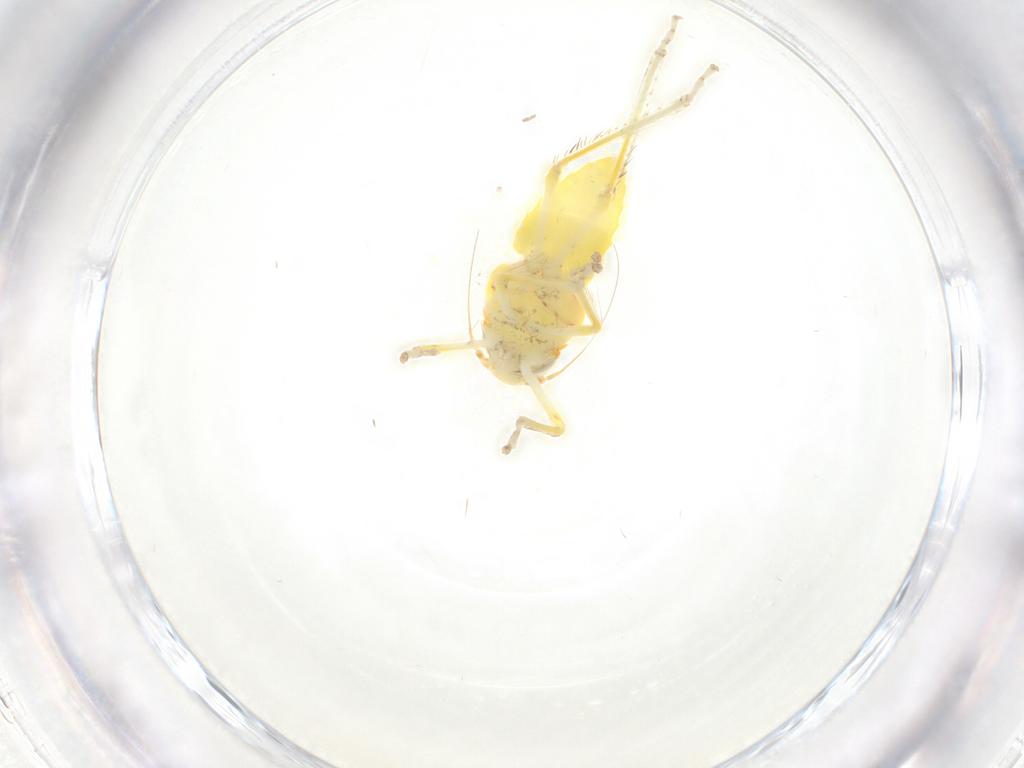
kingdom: Animalia
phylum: Arthropoda
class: Insecta
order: Hemiptera
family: Cicadellidae
